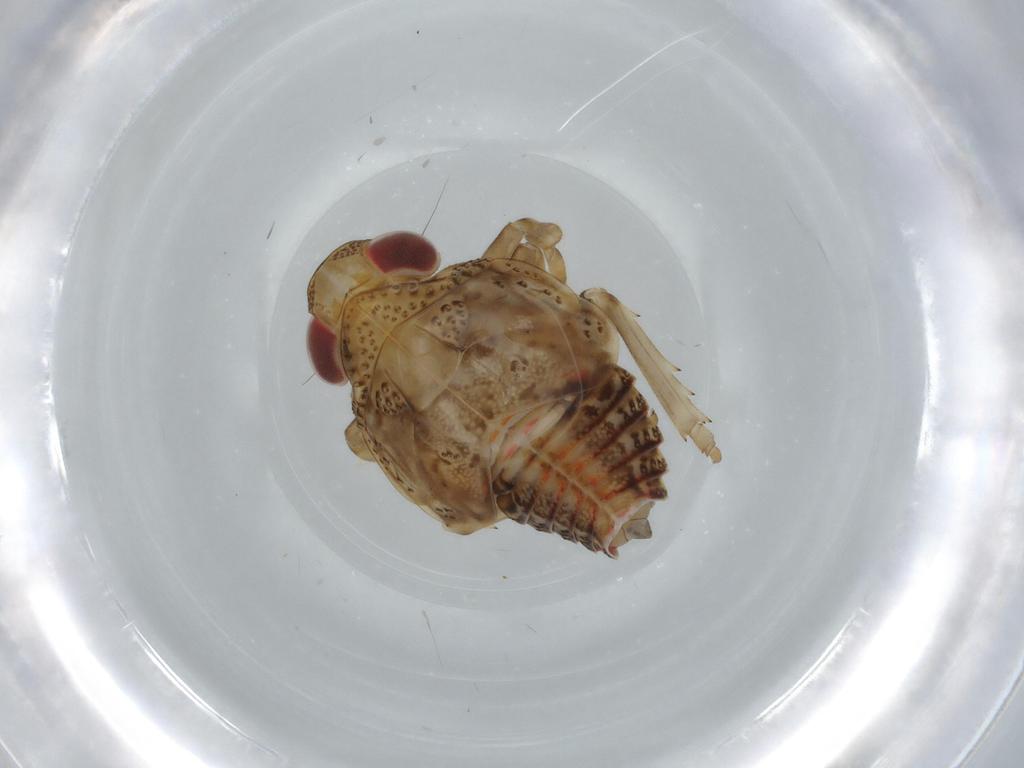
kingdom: Animalia
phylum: Arthropoda
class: Insecta
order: Hemiptera
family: Issidae
